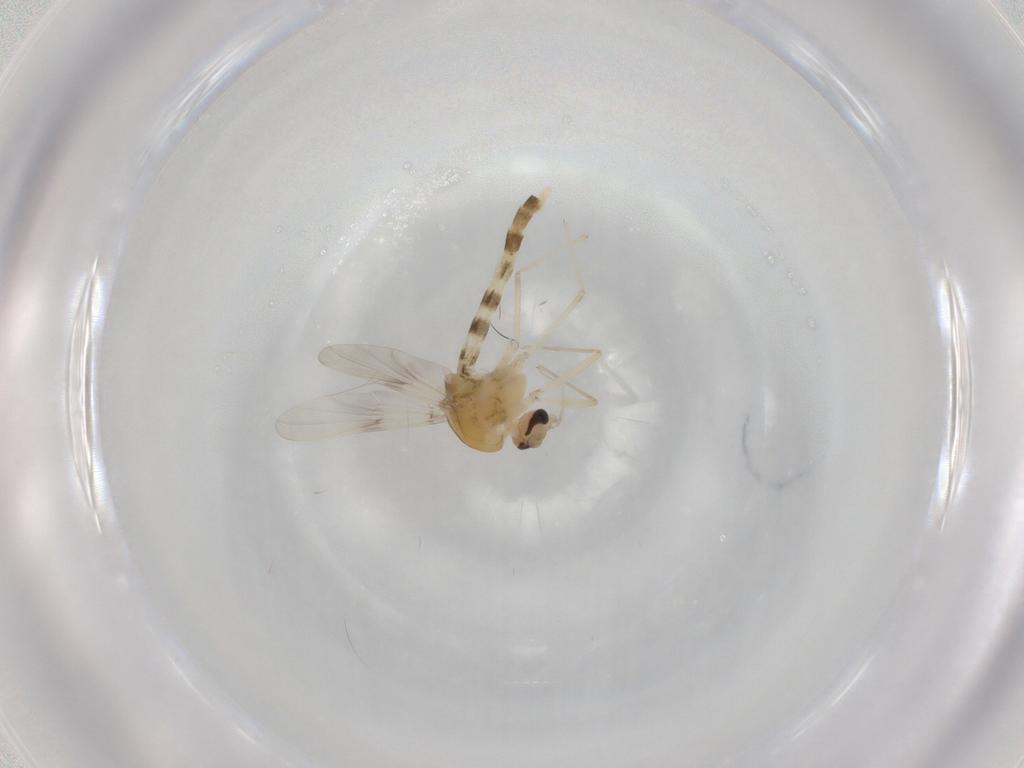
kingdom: Animalia
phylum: Arthropoda
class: Insecta
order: Diptera
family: Chironomidae
